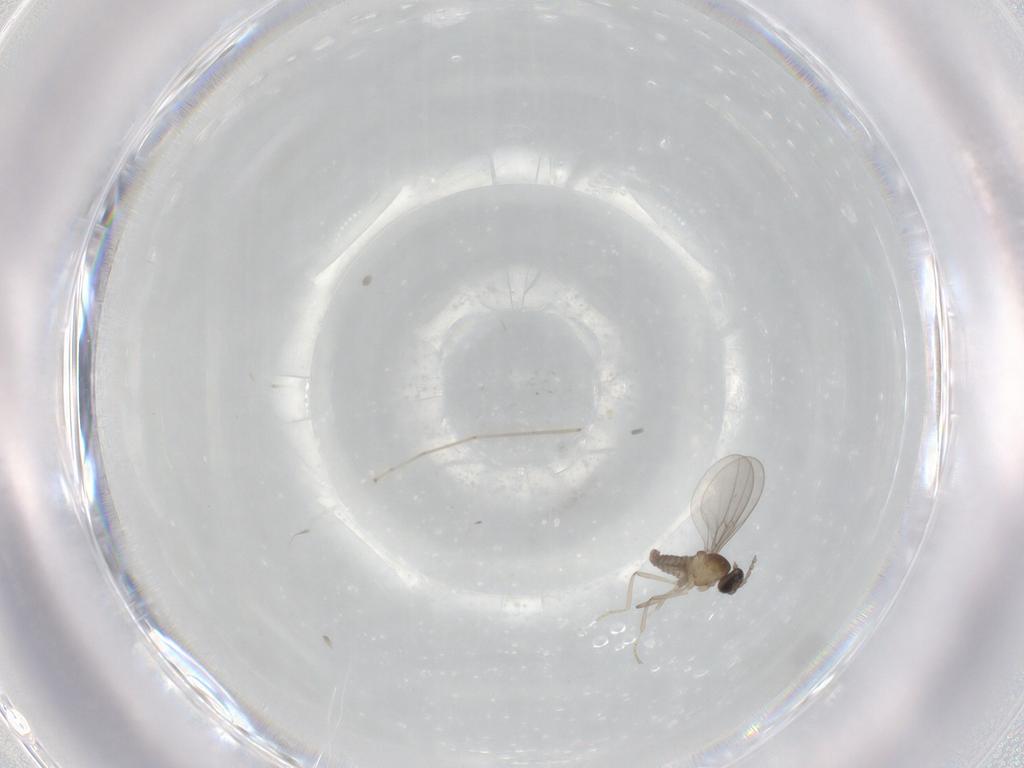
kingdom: Animalia
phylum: Arthropoda
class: Insecta
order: Diptera
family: Cecidomyiidae
